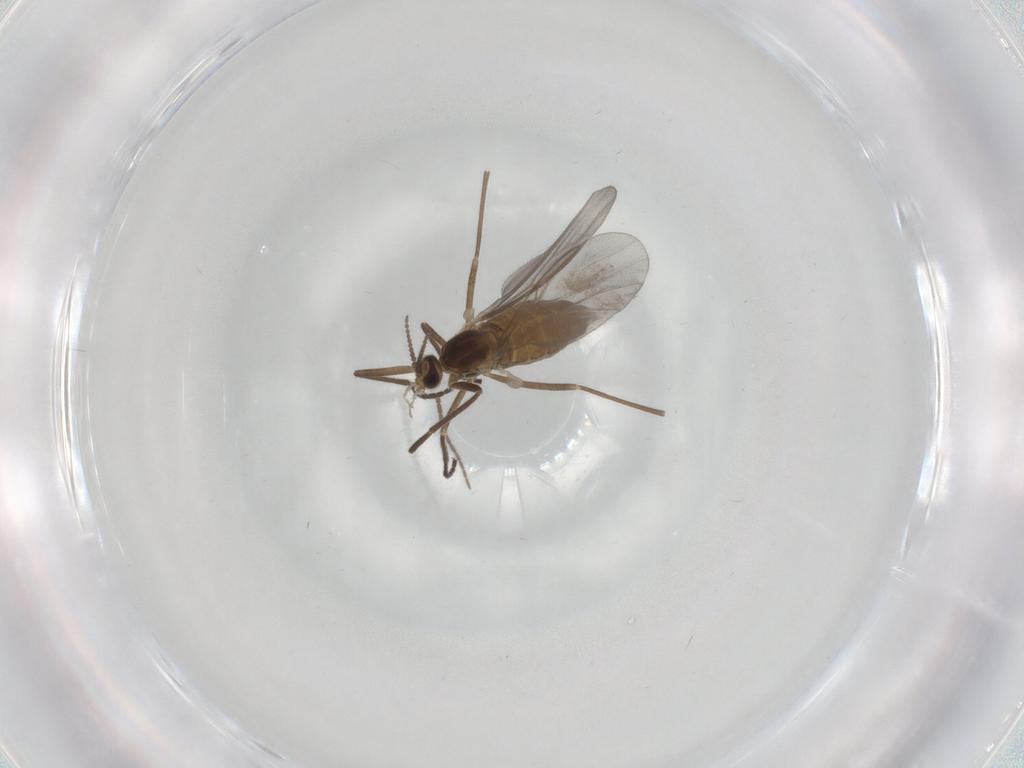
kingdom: Animalia
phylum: Arthropoda
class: Insecta
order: Diptera
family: Cecidomyiidae
